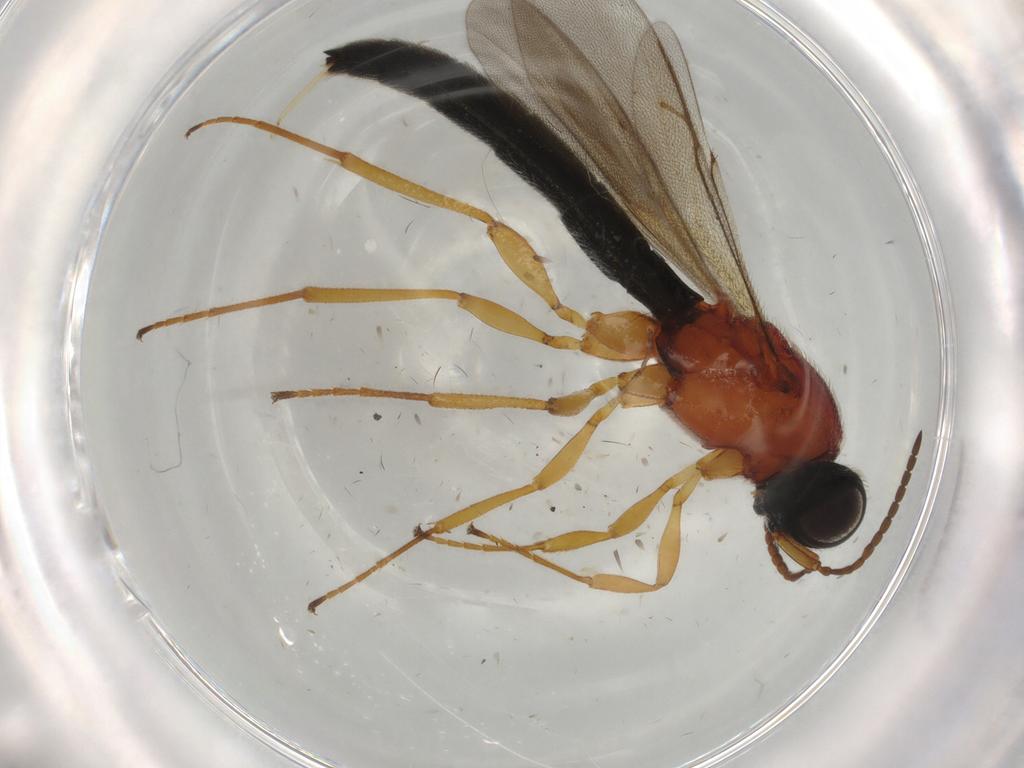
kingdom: Animalia
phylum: Arthropoda
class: Insecta
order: Hymenoptera
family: Scelionidae
